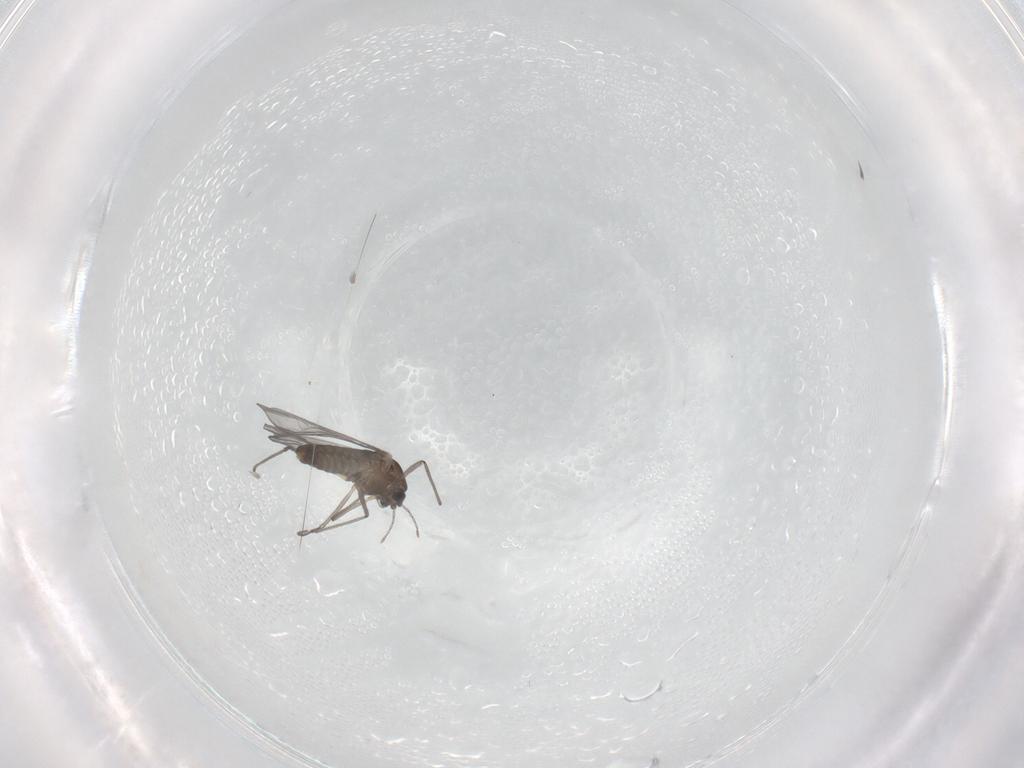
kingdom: Animalia
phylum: Arthropoda
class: Insecta
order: Diptera
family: Chironomidae
